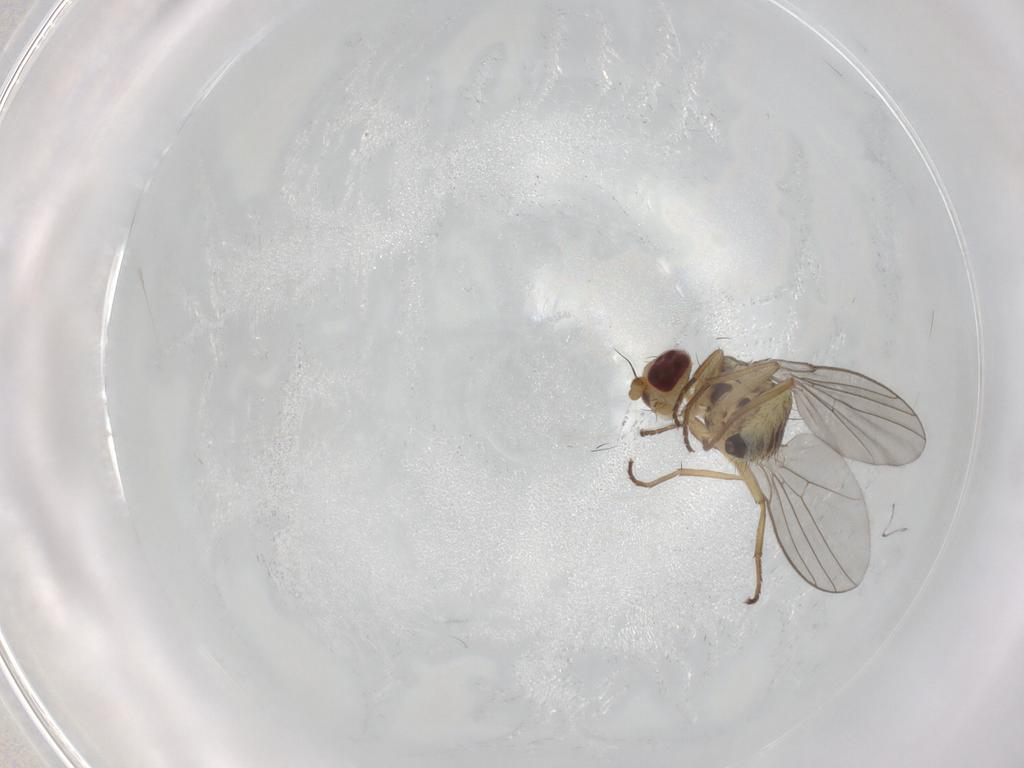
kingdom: Animalia
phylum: Arthropoda
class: Insecta
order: Diptera
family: Agromyzidae
